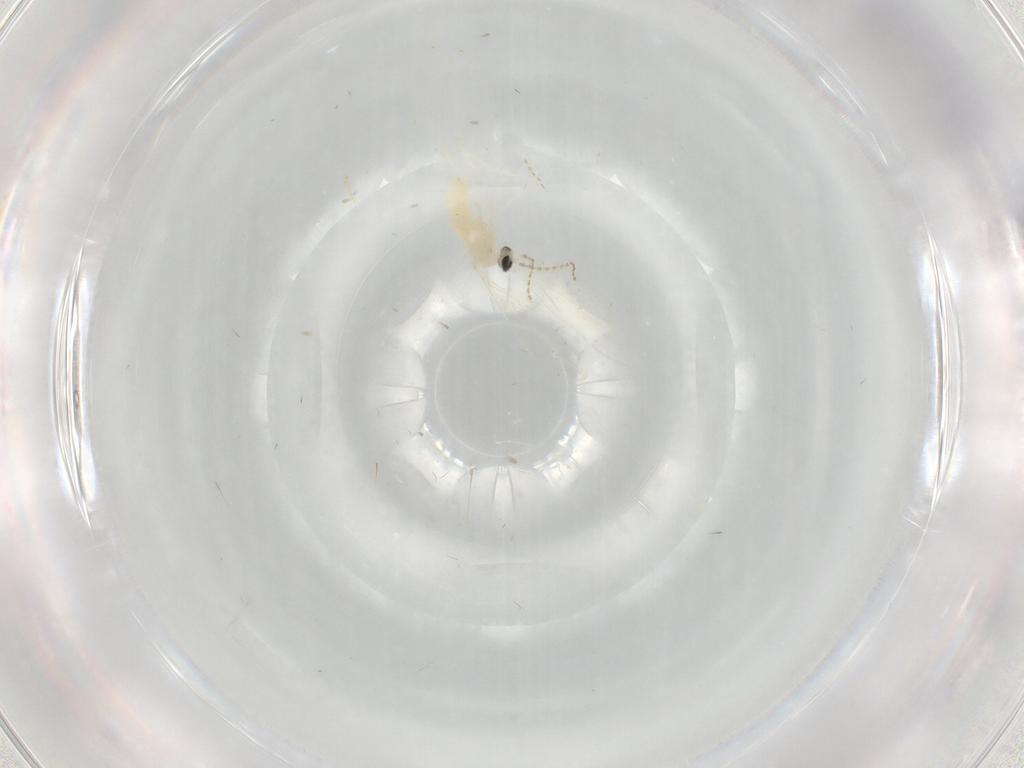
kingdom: Animalia
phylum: Arthropoda
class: Insecta
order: Diptera
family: Cecidomyiidae
